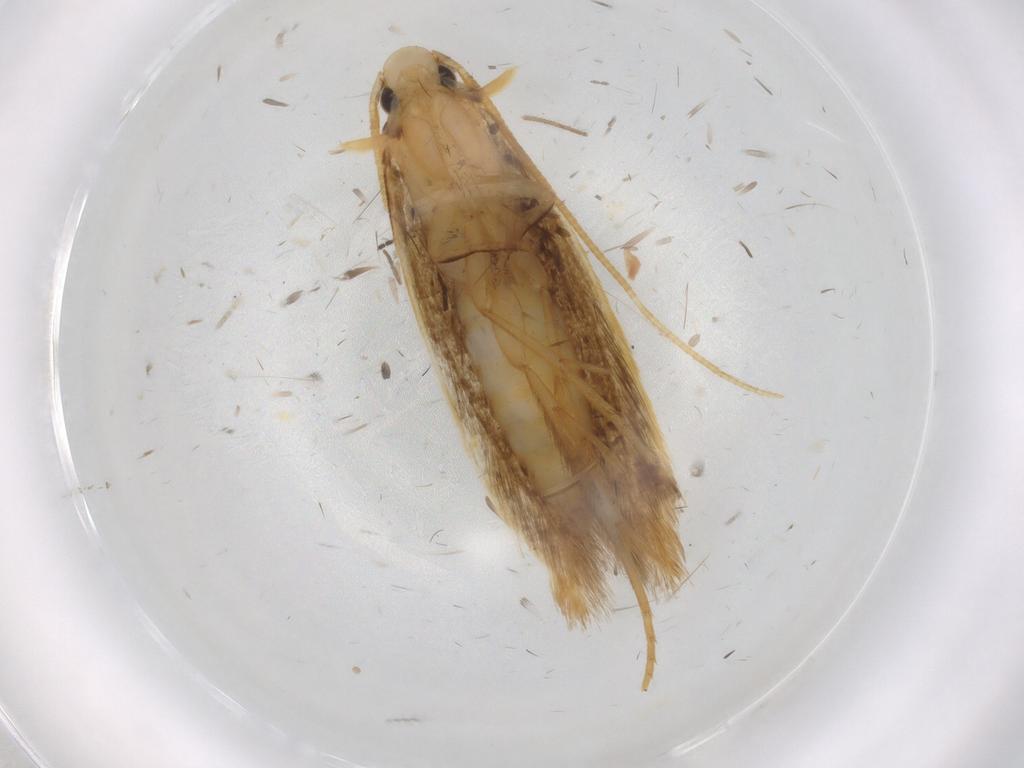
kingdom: Animalia
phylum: Arthropoda
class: Insecta
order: Lepidoptera
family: Tineidae
